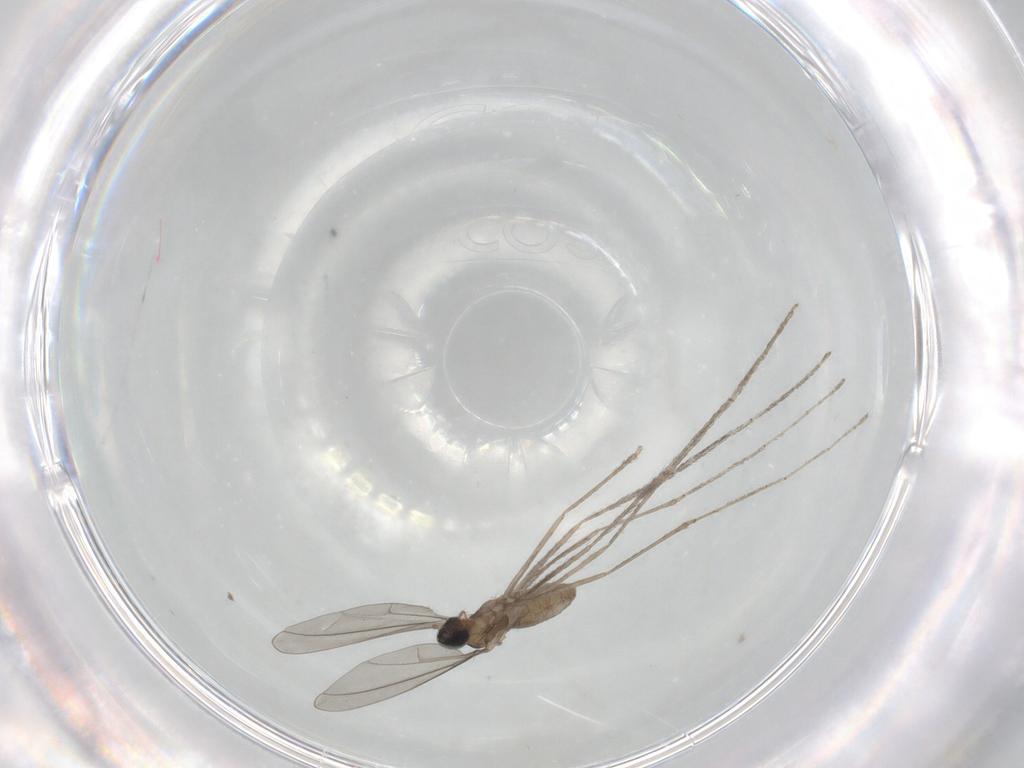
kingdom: Animalia
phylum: Arthropoda
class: Insecta
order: Diptera
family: Cecidomyiidae
